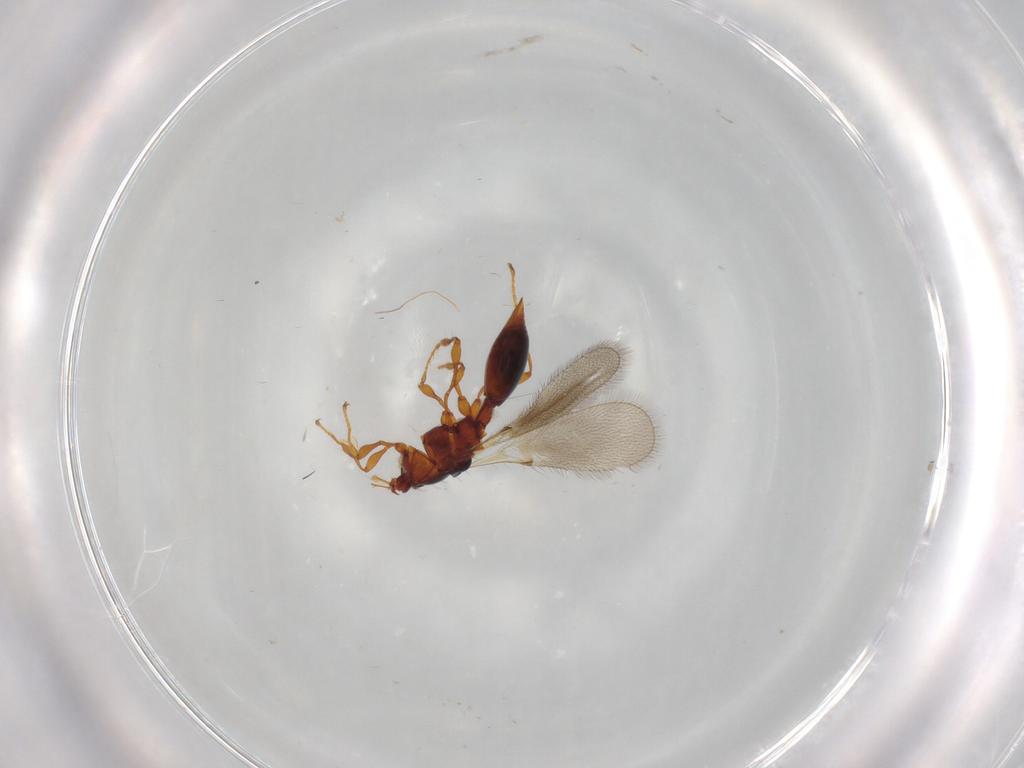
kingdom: Animalia
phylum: Arthropoda
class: Insecta
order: Hymenoptera
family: Diapriidae
